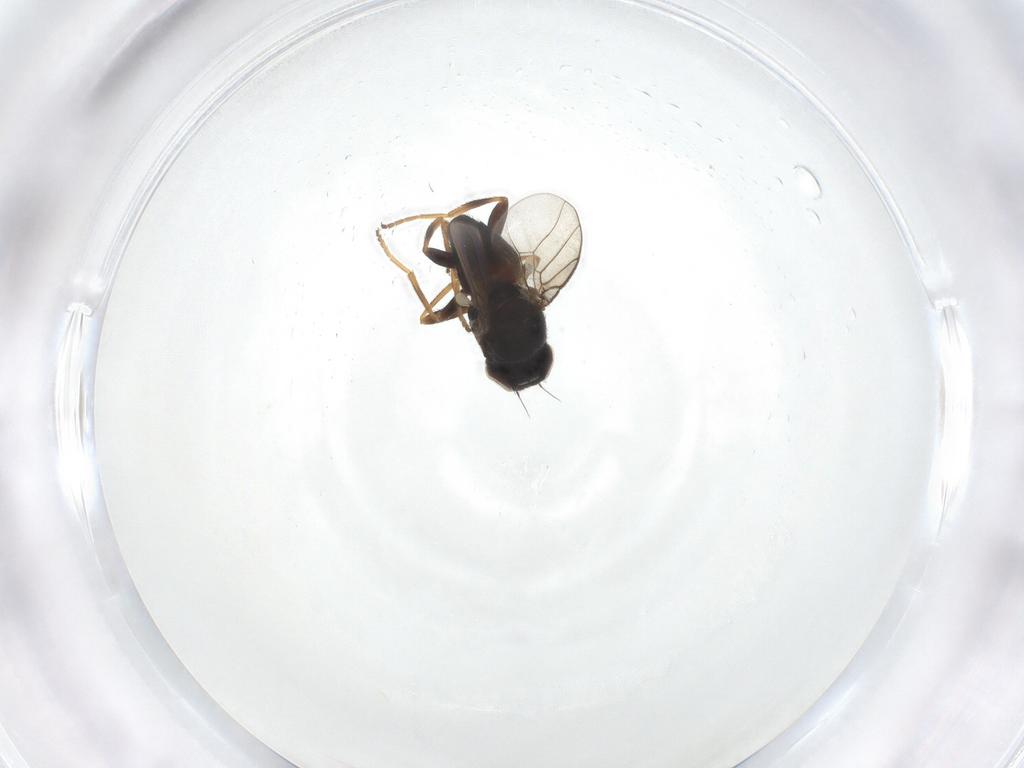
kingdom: Animalia
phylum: Arthropoda
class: Insecta
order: Diptera
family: Chloropidae
